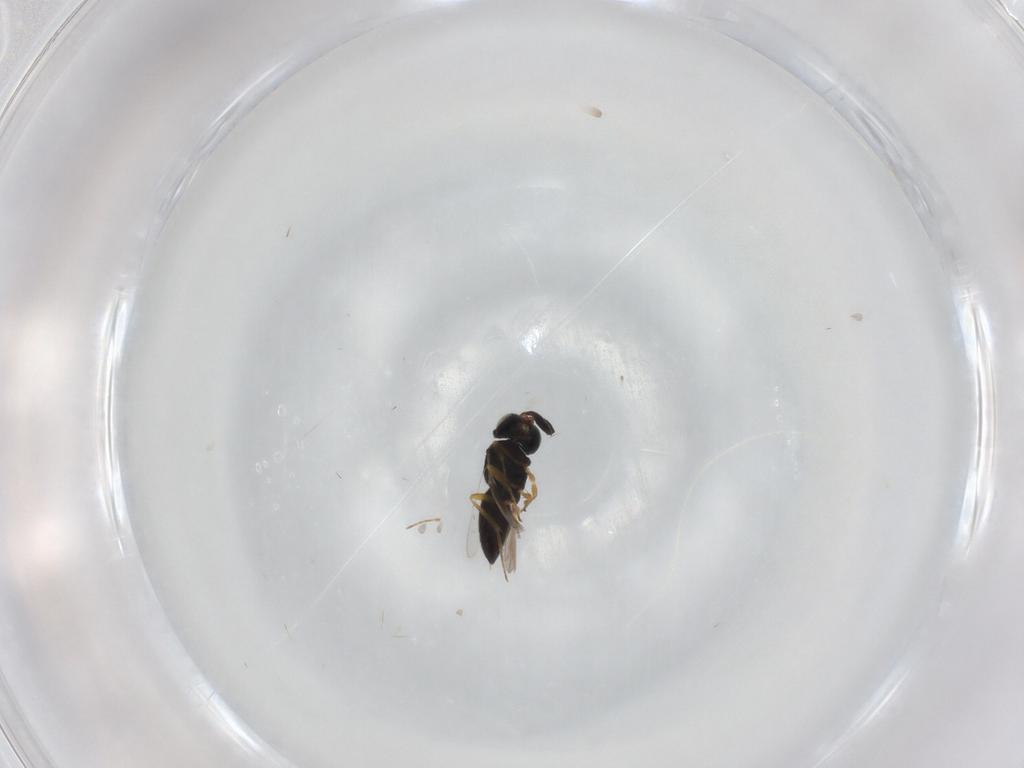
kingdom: Animalia
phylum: Arthropoda
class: Insecta
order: Hymenoptera
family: Scelionidae
